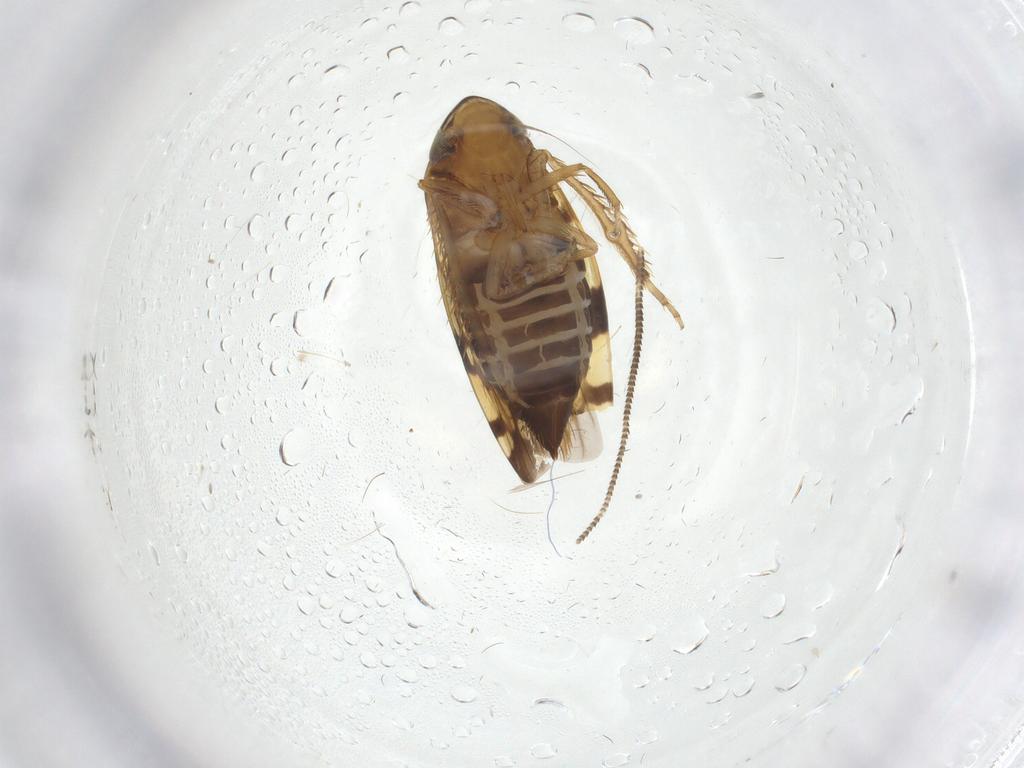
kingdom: Animalia
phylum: Arthropoda
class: Insecta
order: Hemiptera
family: Cicadellidae
